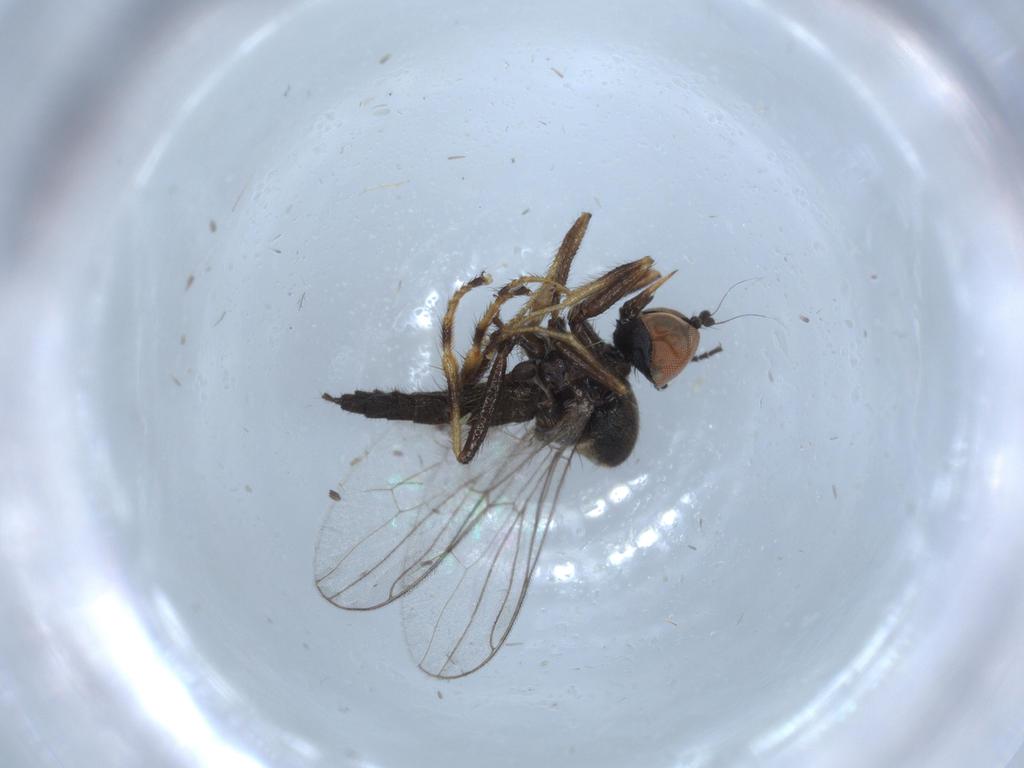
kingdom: Animalia
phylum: Arthropoda
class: Insecta
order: Diptera
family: Hybotidae
